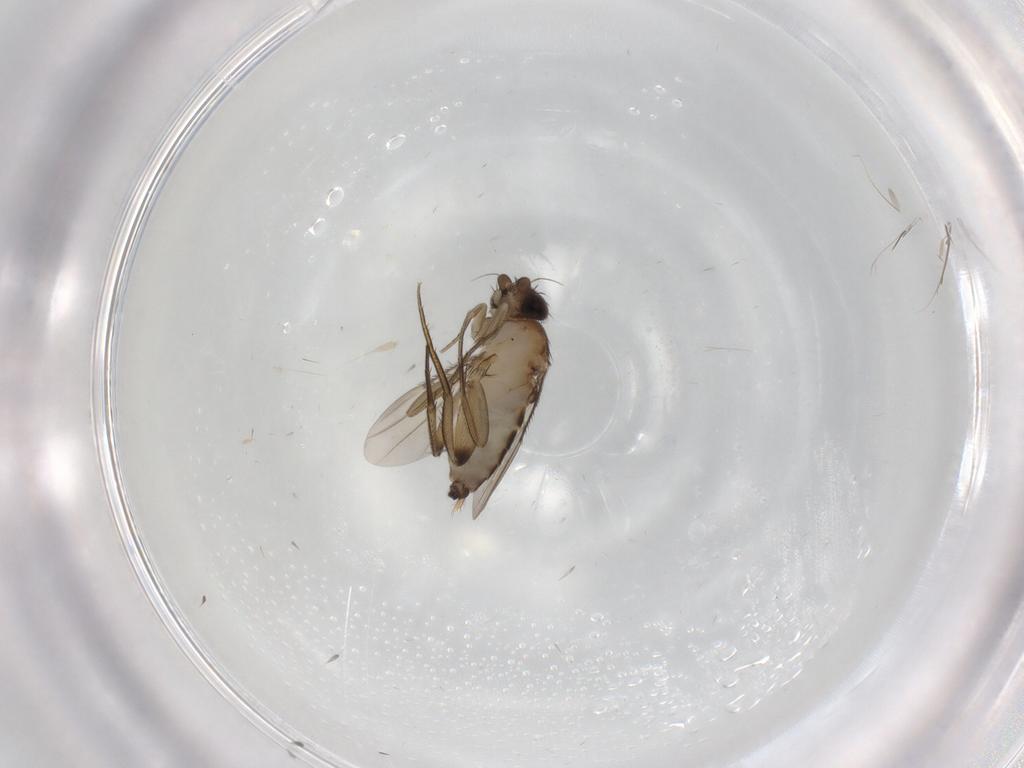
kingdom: Animalia
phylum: Arthropoda
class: Insecta
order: Diptera
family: Phoridae
